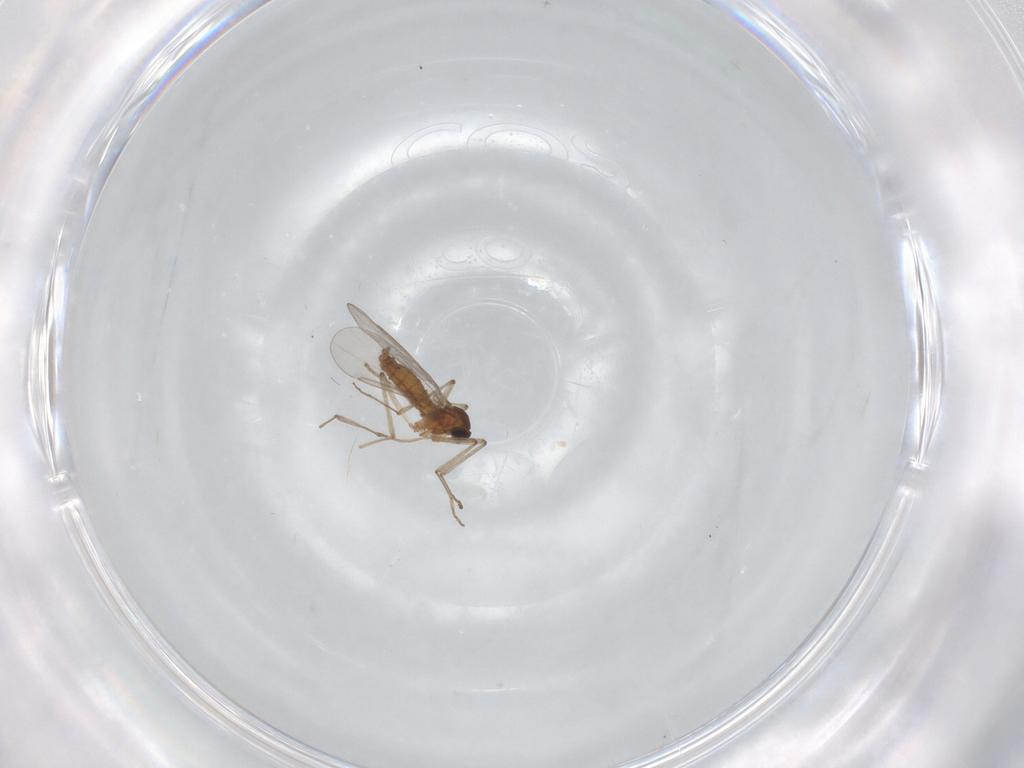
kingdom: Animalia
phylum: Arthropoda
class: Insecta
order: Diptera
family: Cecidomyiidae
